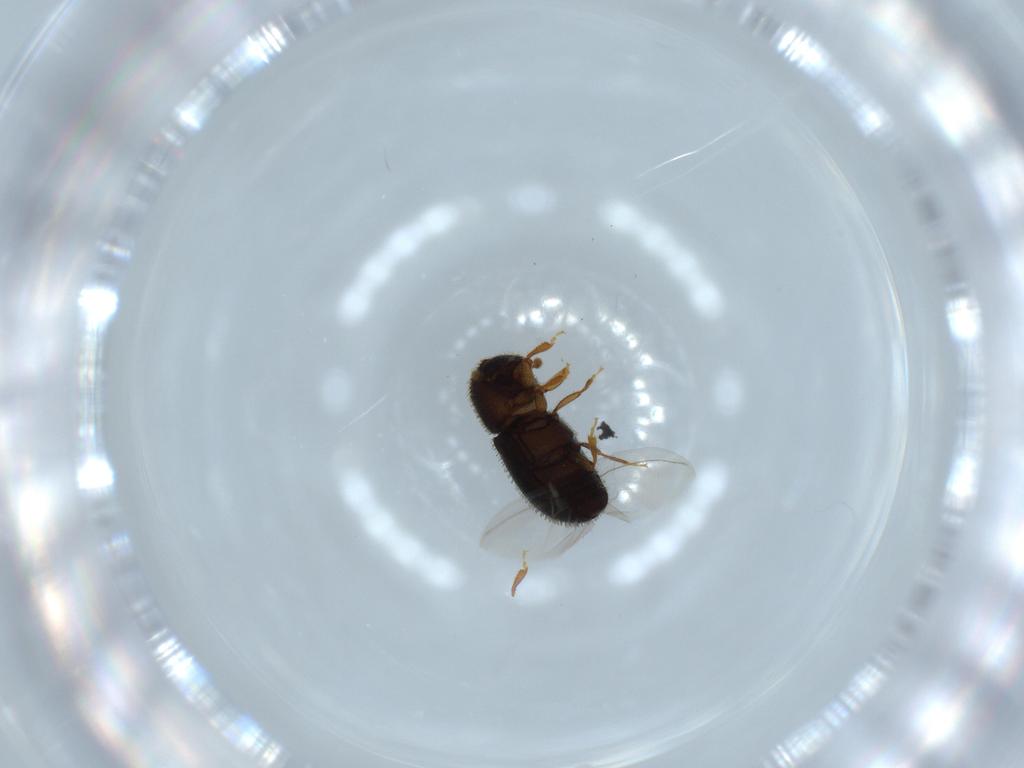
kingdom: Animalia
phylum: Arthropoda
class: Insecta
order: Coleoptera
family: Curculionidae
